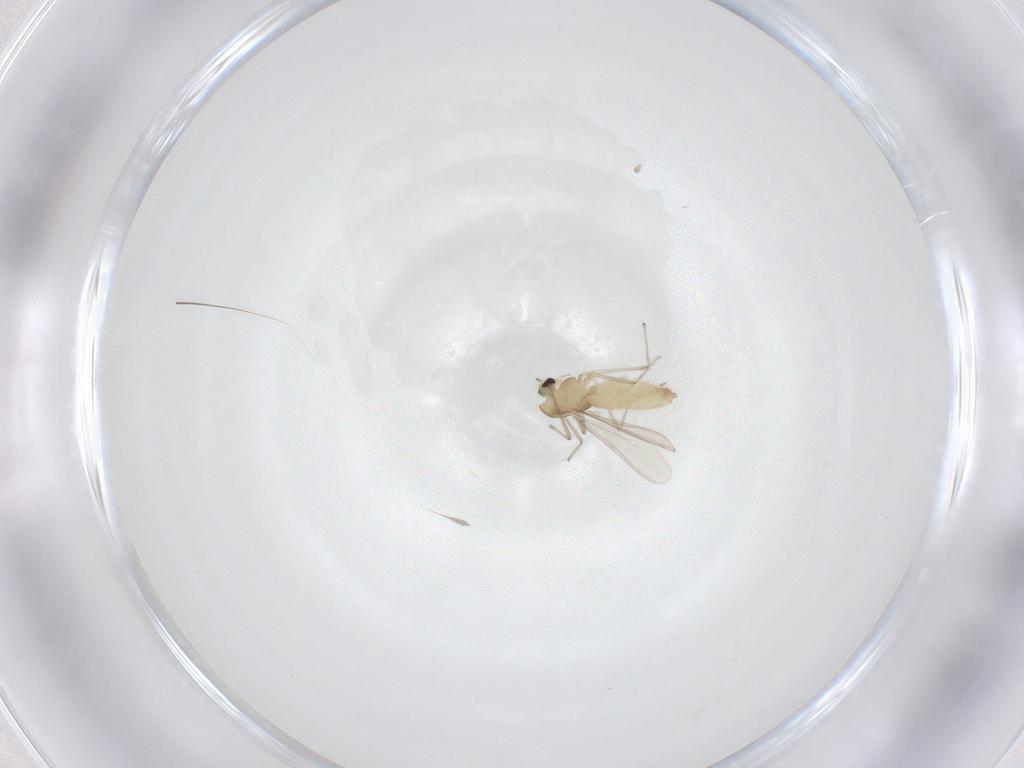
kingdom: Animalia
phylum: Arthropoda
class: Insecta
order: Diptera
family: Chironomidae
